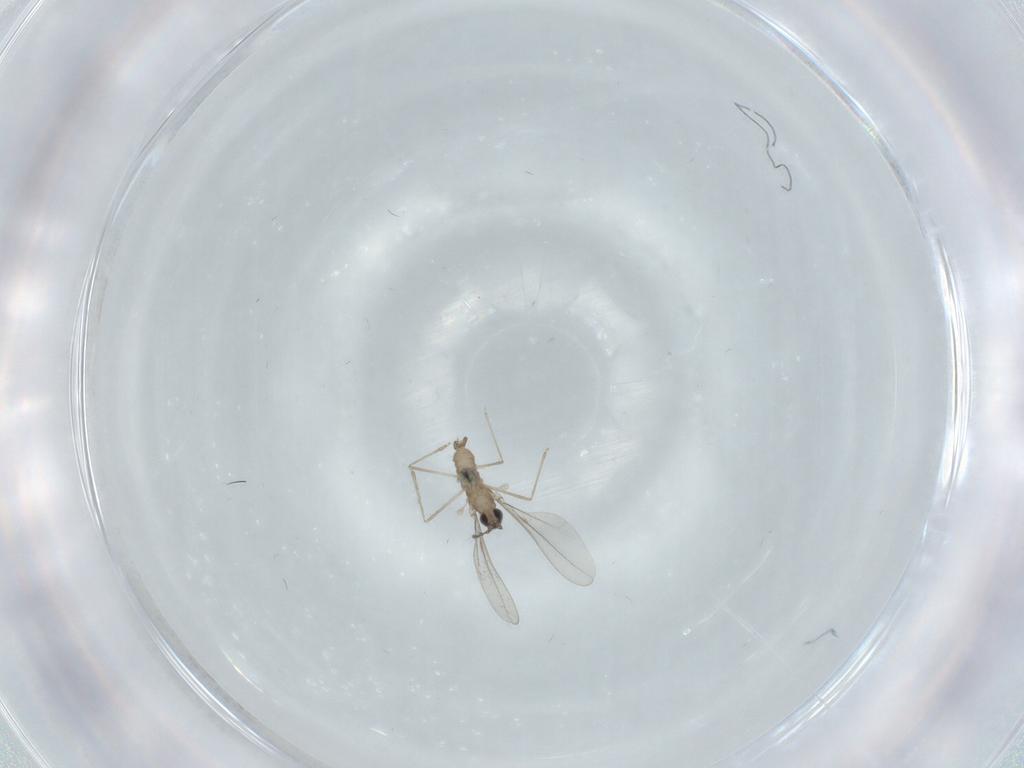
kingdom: Animalia
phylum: Arthropoda
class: Insecta
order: Diptera
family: Cecidomyiidae
